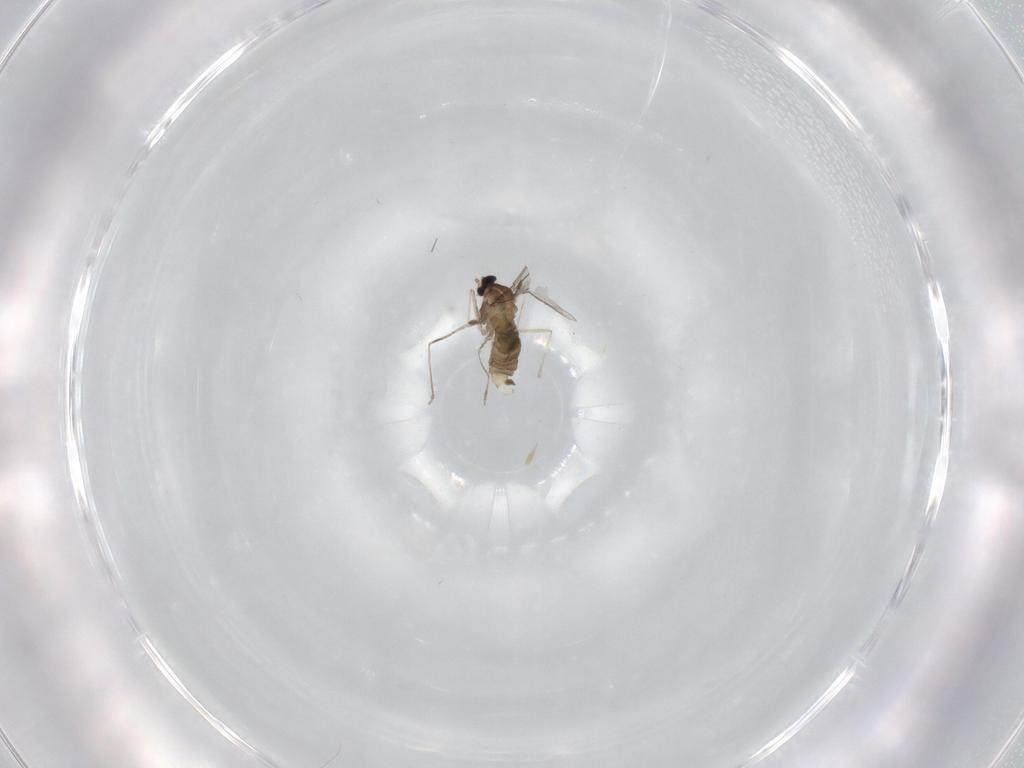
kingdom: Animalia
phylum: Arthropoda
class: Insecta
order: Diptera
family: Cecidomyiidae
